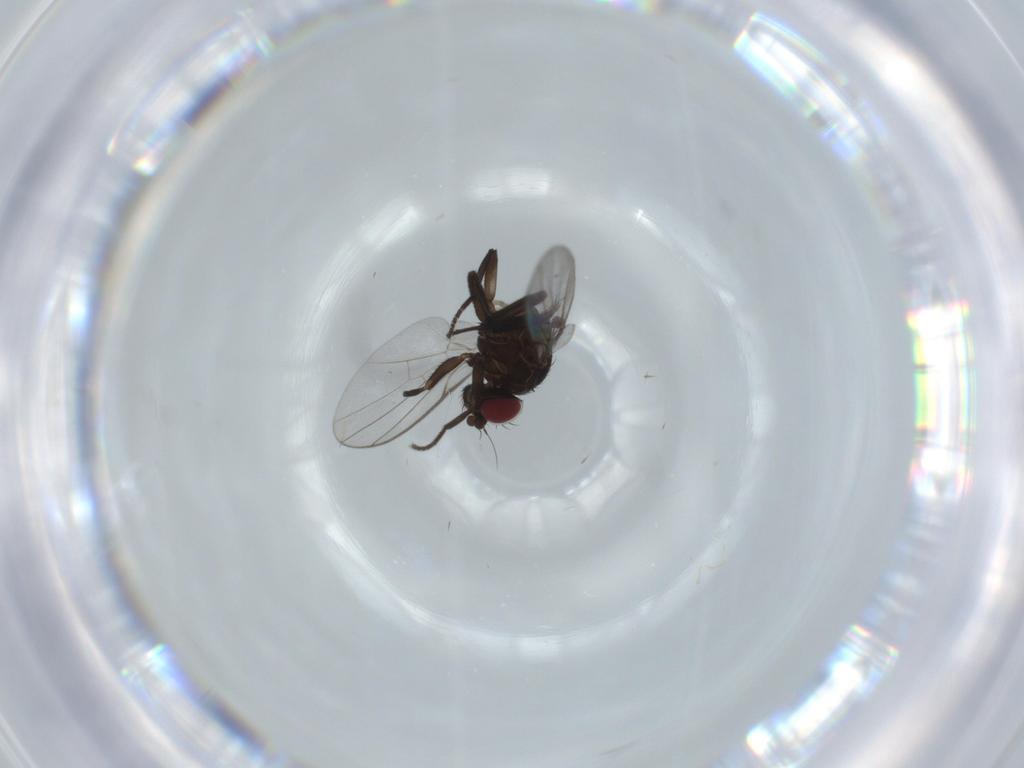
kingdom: Animalia
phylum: Arthropoda
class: Insecta
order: Diptera
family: Agromyzidae
